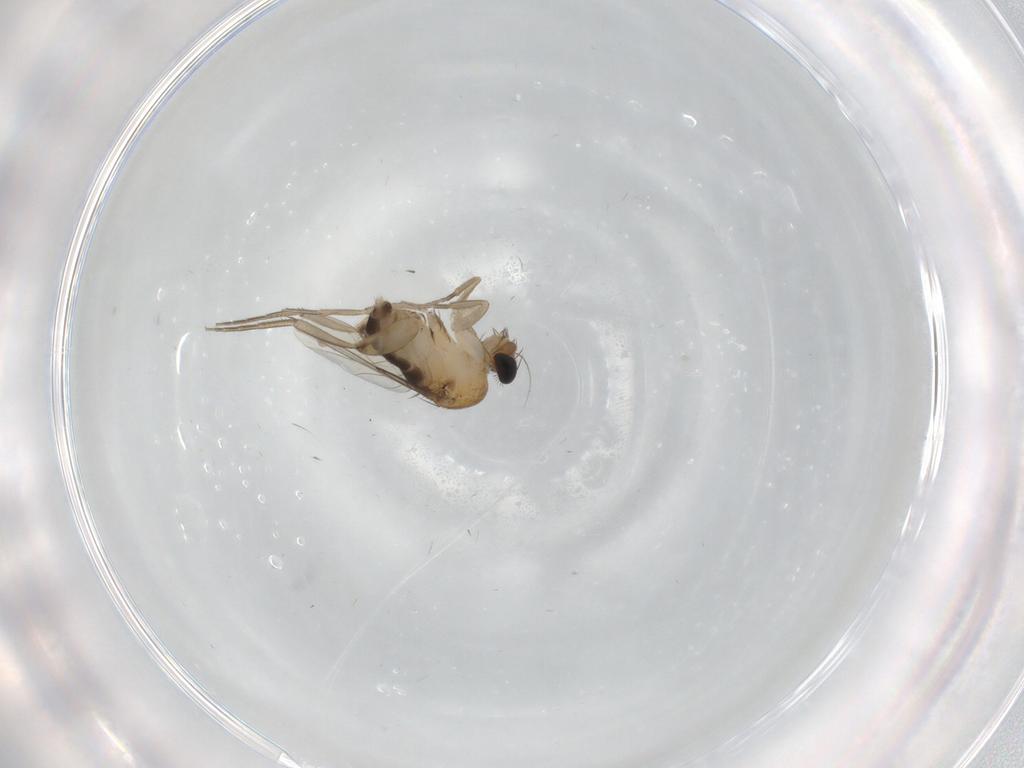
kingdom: Animalia
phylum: Arthropoda
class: Insecta
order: Diptera
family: Phoridae
